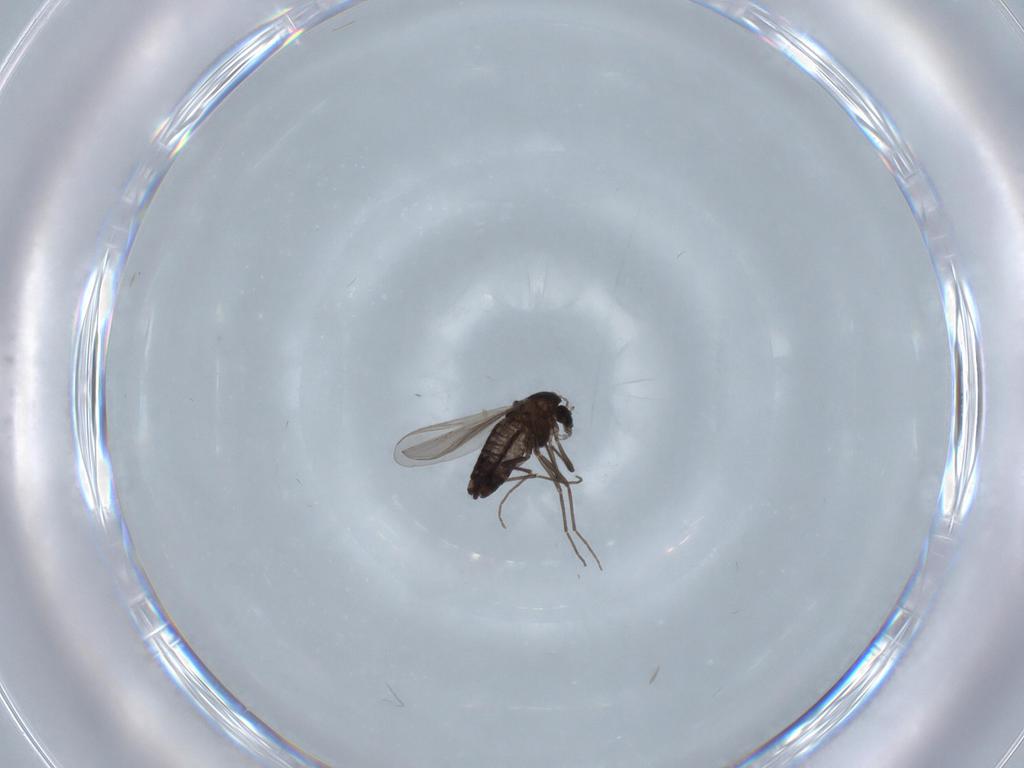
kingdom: Animalia
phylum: Arthropoda
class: Insecta
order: Diptera
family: Chironomidae
